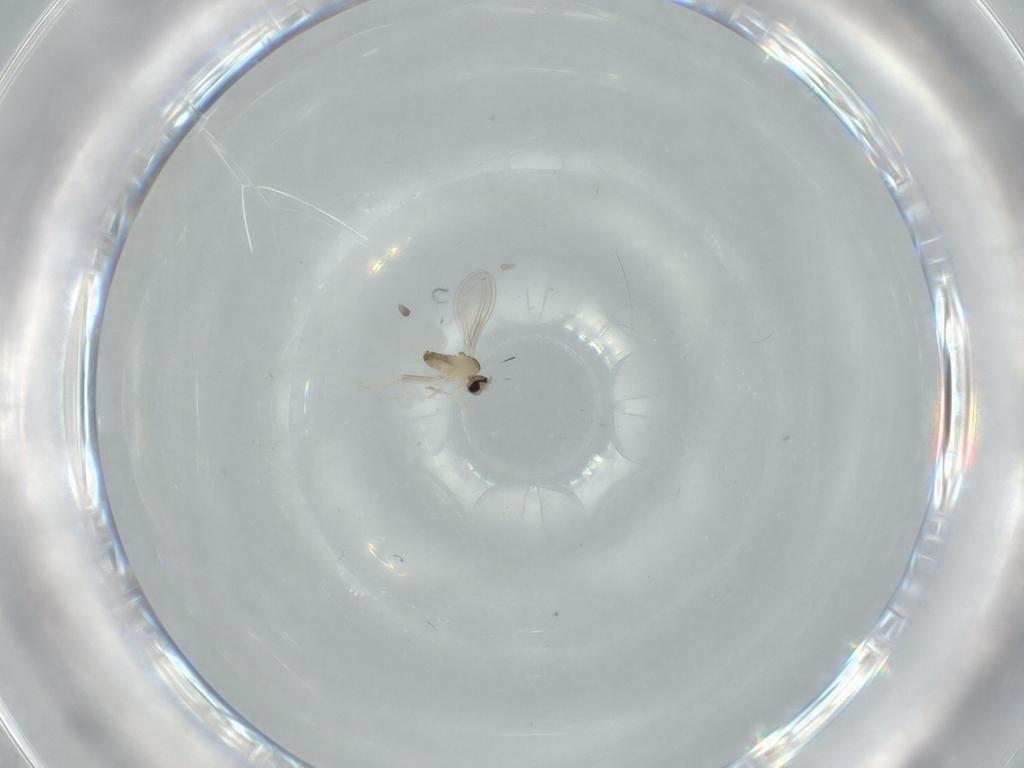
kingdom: Animalia
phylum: Arthropoda
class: Insecta
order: Diptera
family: Cecidomyiidae
